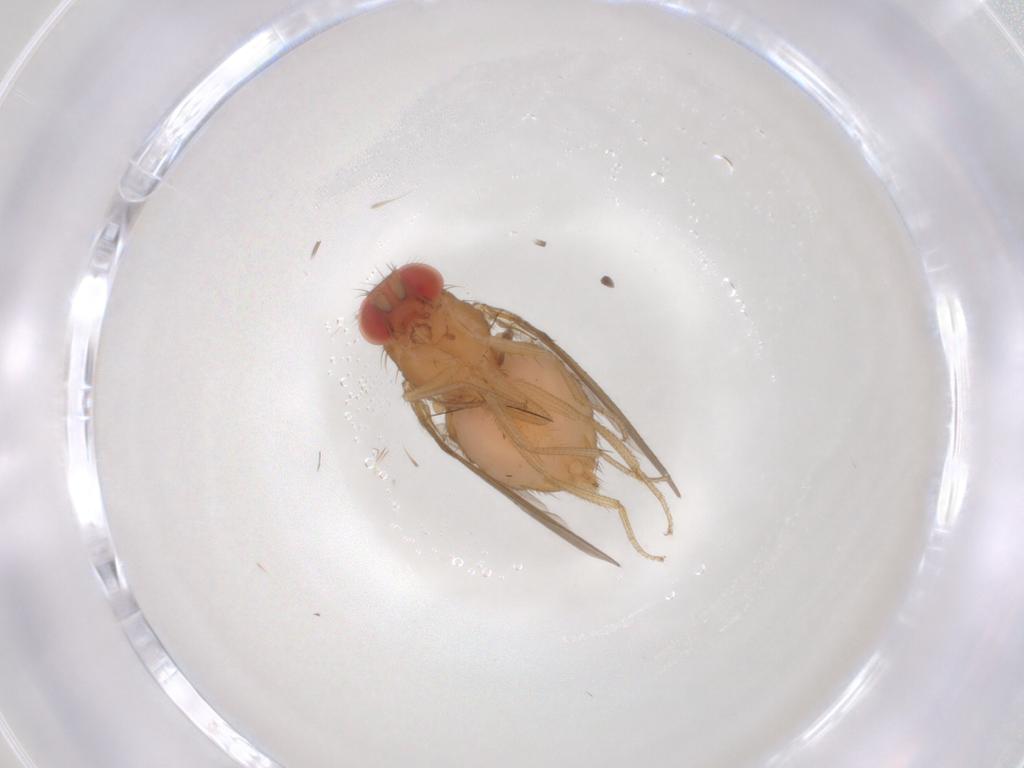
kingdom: Animalia
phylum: Arthropoda
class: Insecta
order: Diptera
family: Drosophilidae
